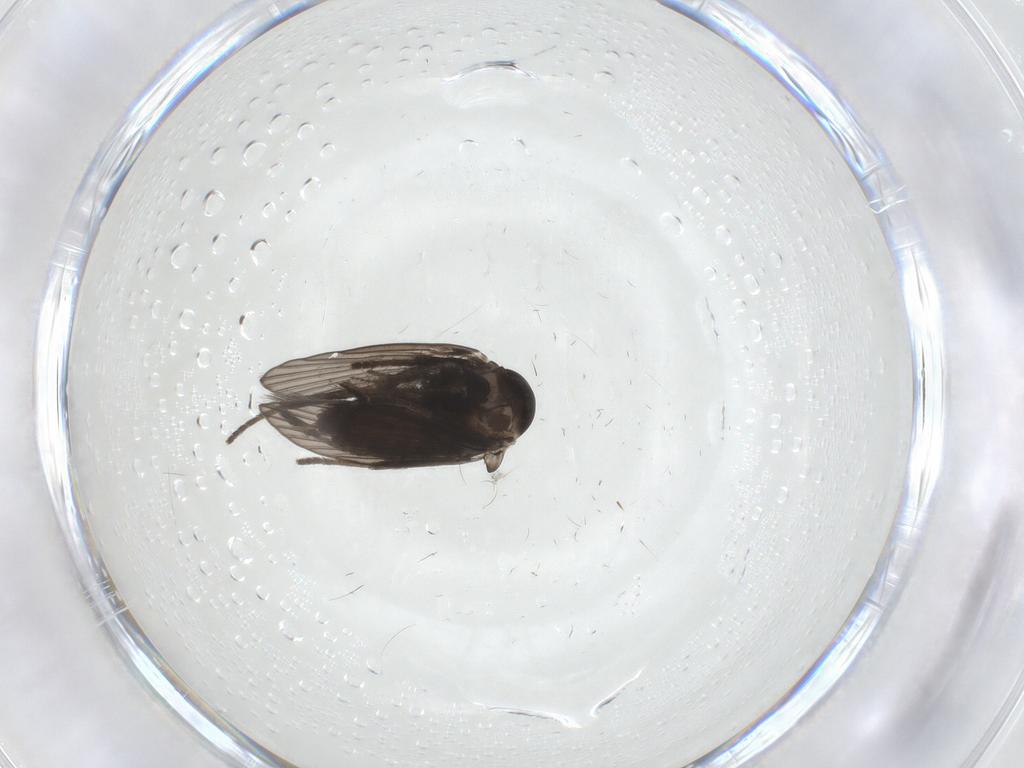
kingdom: Animalia
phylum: Arthropoda
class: Insecta
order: Diptera
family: Psychodidae
